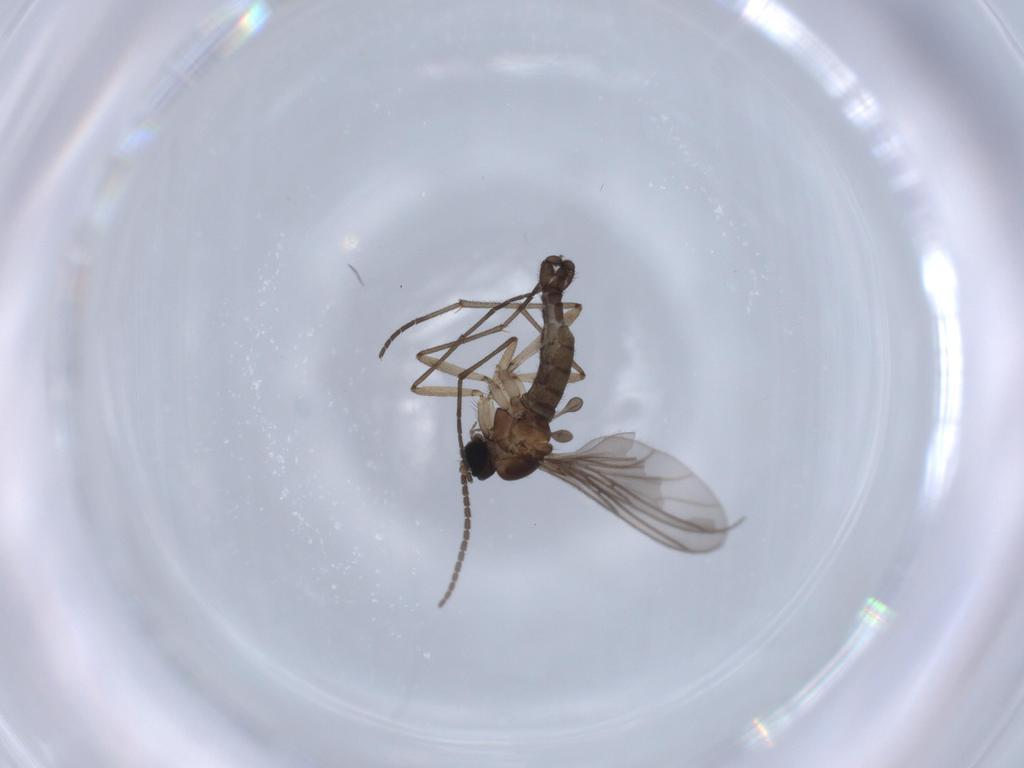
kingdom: Animalia
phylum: Arthropoda
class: Insecta
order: Diptera
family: Cecidomyiidae
